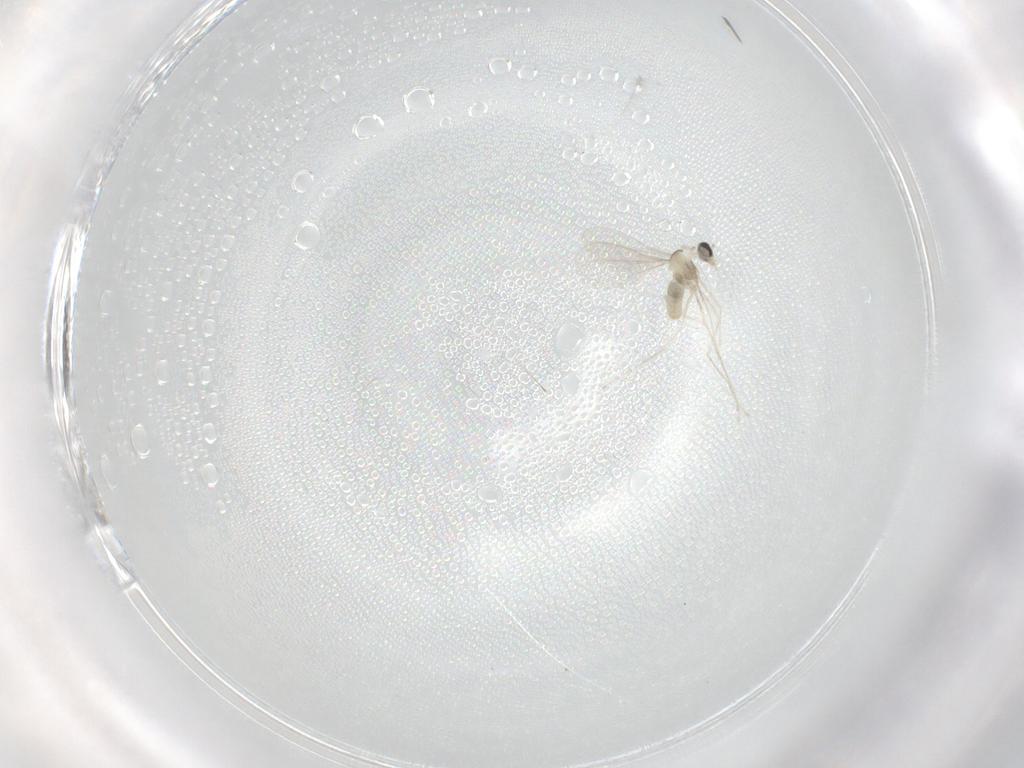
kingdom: Animalia
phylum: Arthropoda
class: Insecta
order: Diptera
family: Cecidomyiidae
